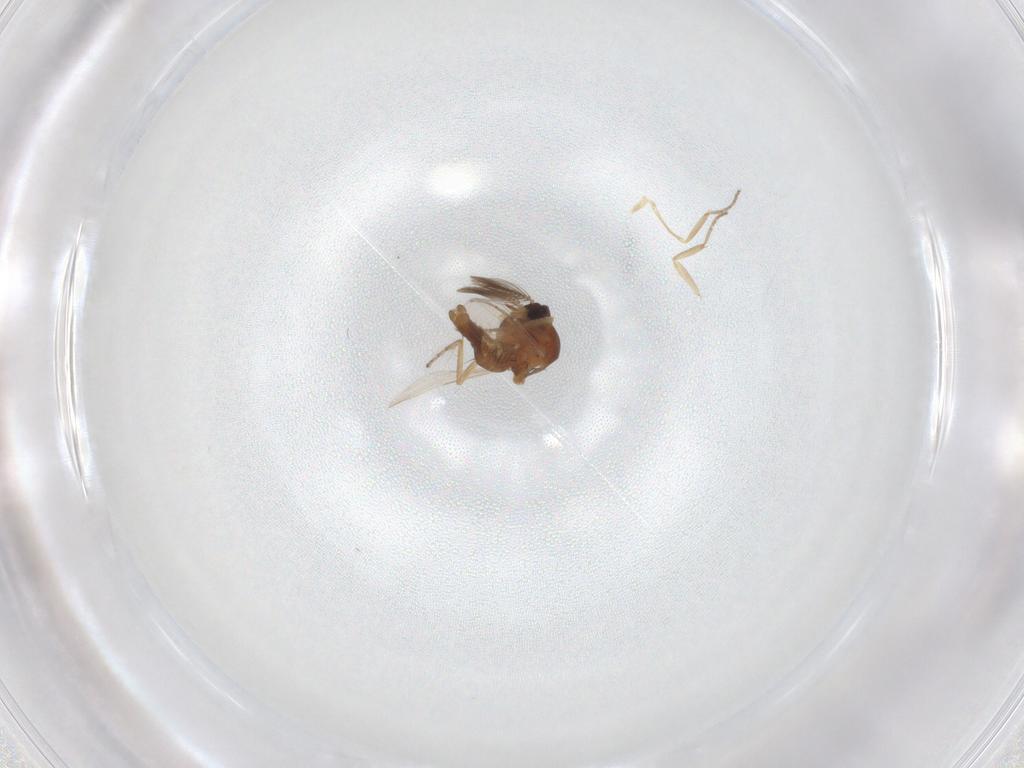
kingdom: Animalia
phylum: Arthropoda
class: Insecta
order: Diptera
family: Ceratopogonidae
